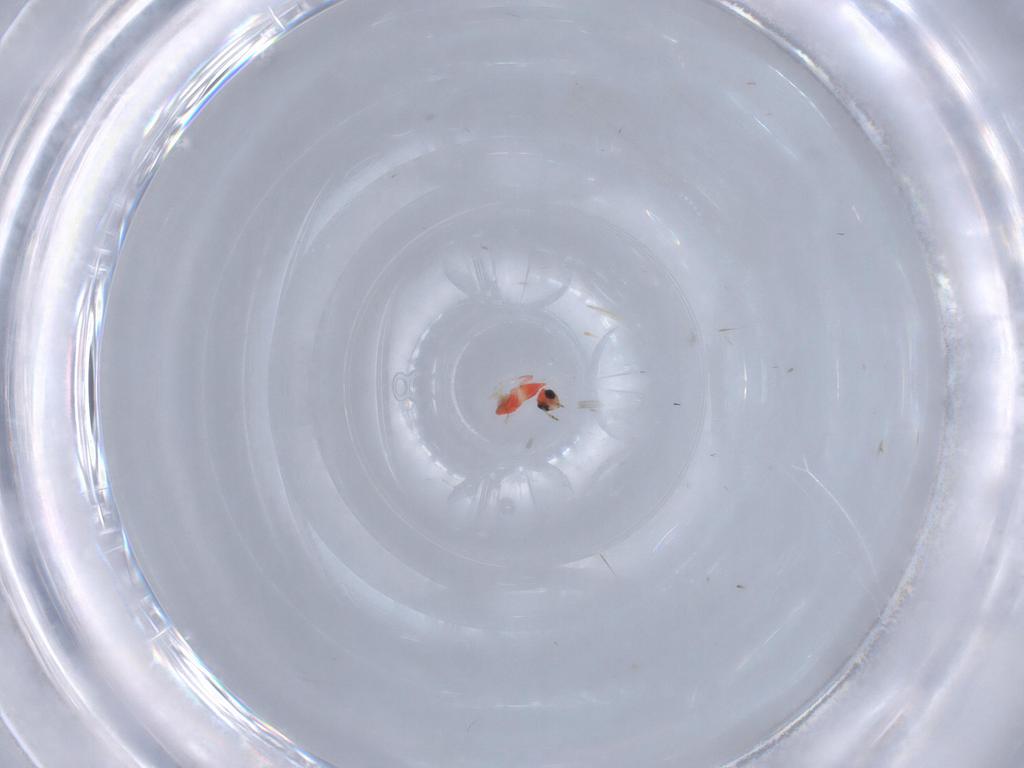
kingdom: Animalia
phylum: Arthropoda
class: Insecta
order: Hymenoptera
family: Trichogrammatidae
